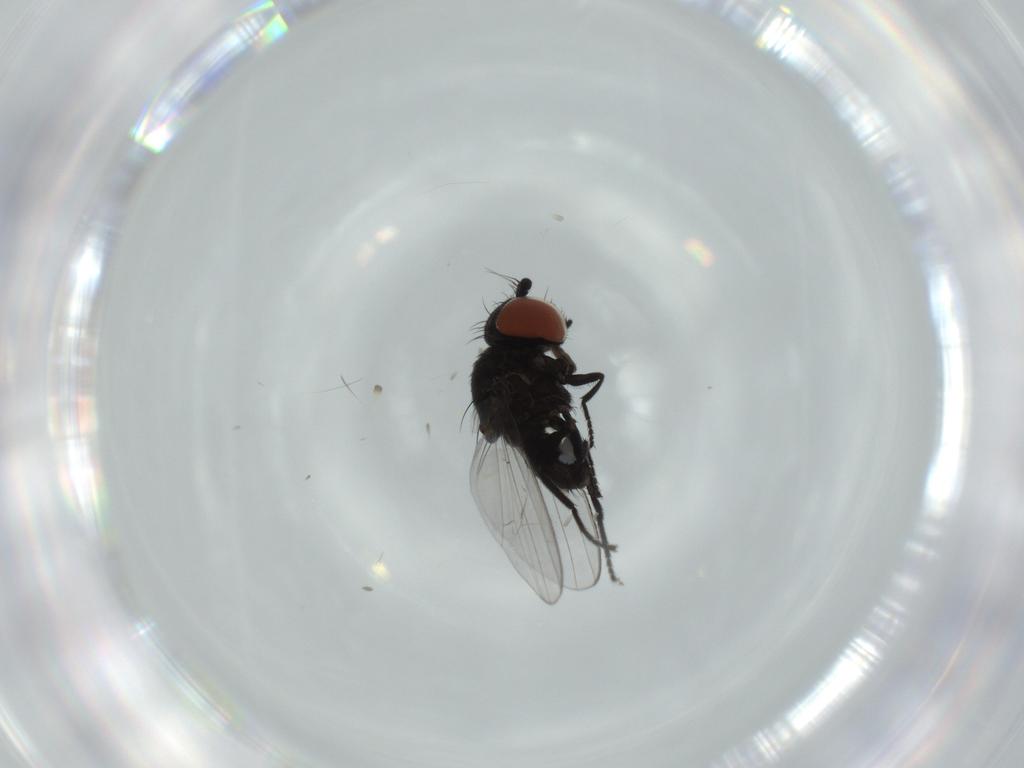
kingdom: Animalia
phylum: Arthropoda
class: Insecta
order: Diptera
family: Milichiidae
